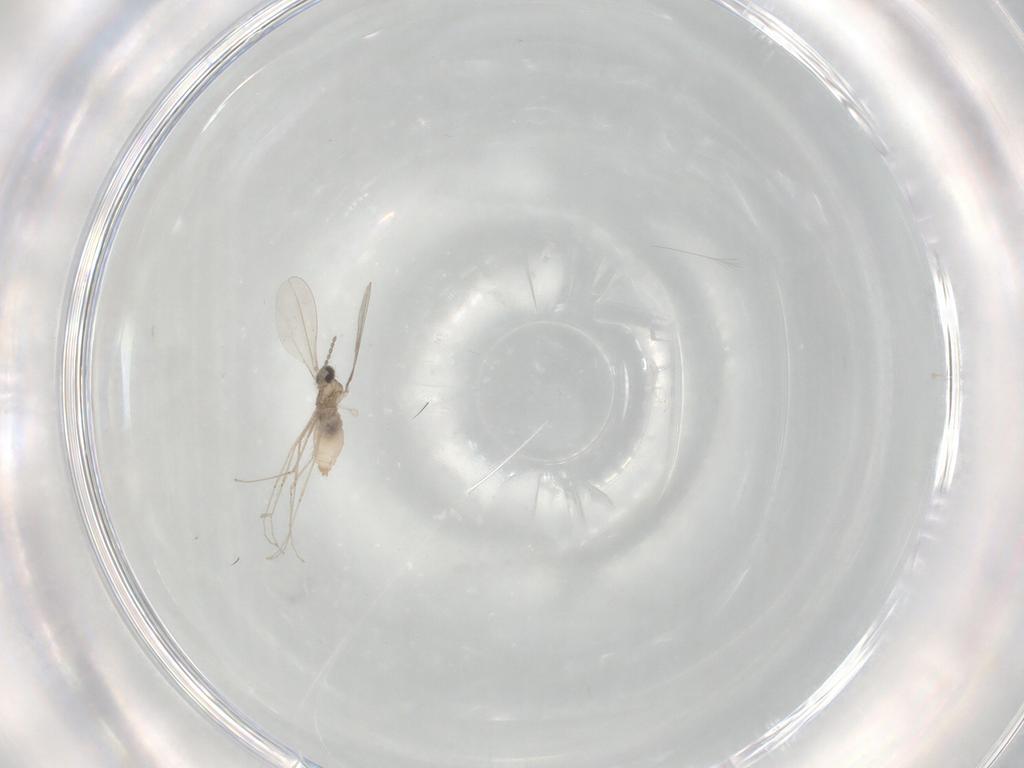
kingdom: Animalia
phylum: Arthropoda
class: Insecta
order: Diptera
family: Cecidomyiidae
